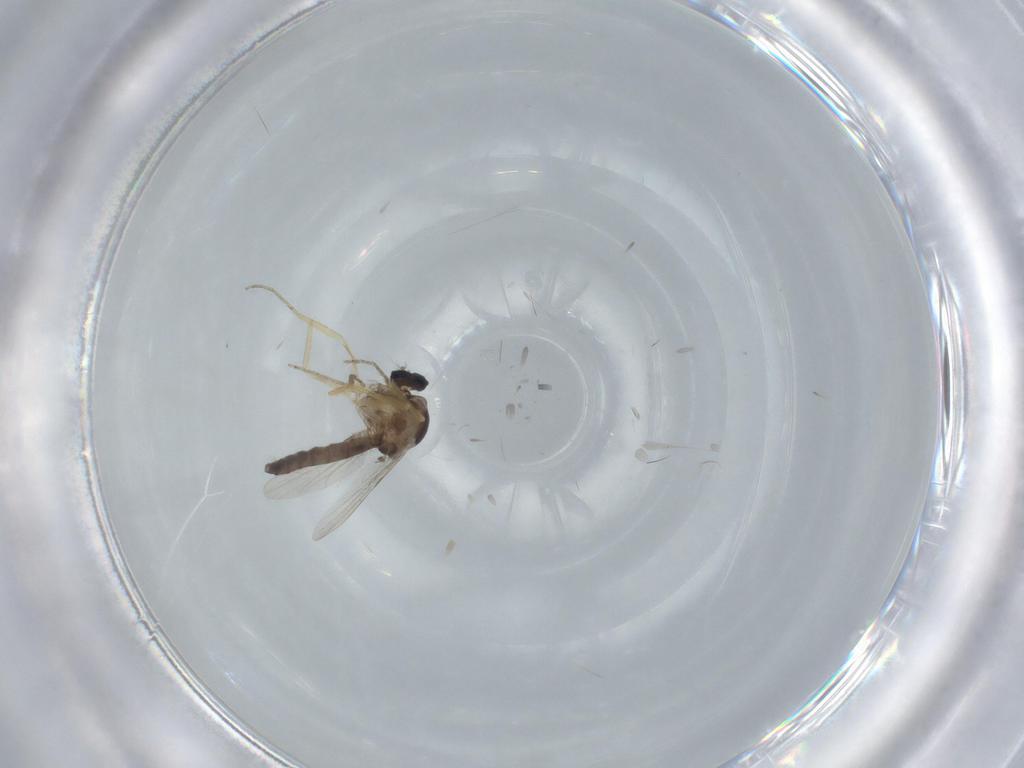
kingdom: Animalia
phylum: Arthropoda
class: Insecta
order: Diptera
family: Ceratopogonidae
